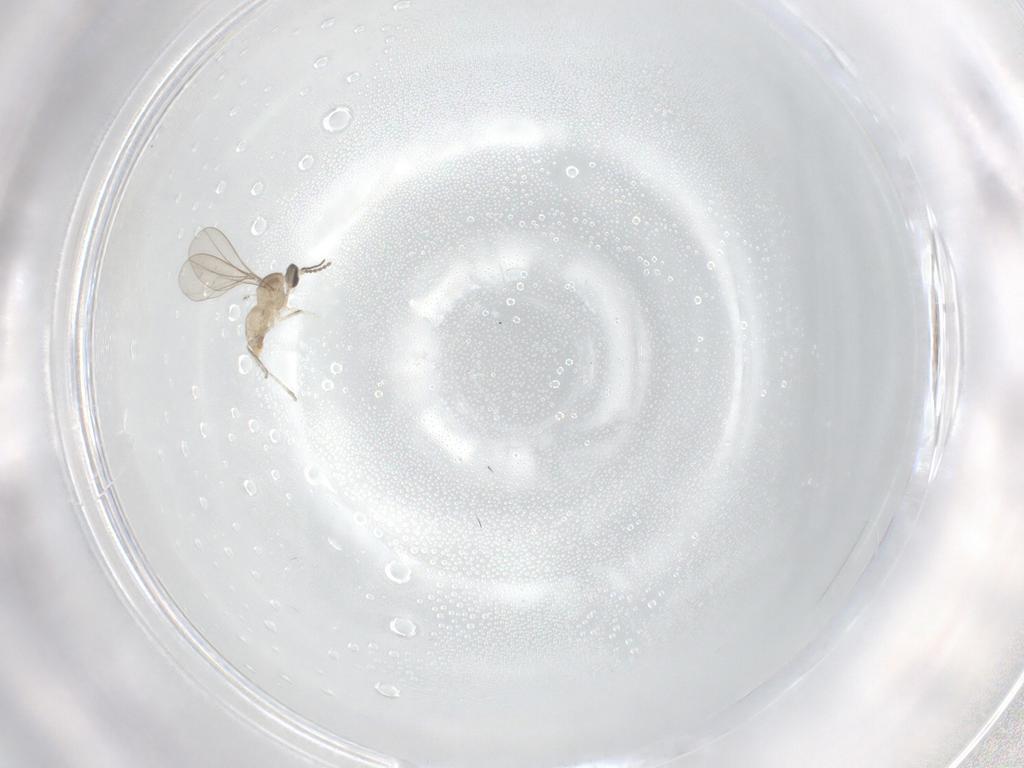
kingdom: Animalia
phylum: Arthropoda
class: Insecta
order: Diptera
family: Cecidomyiidae
